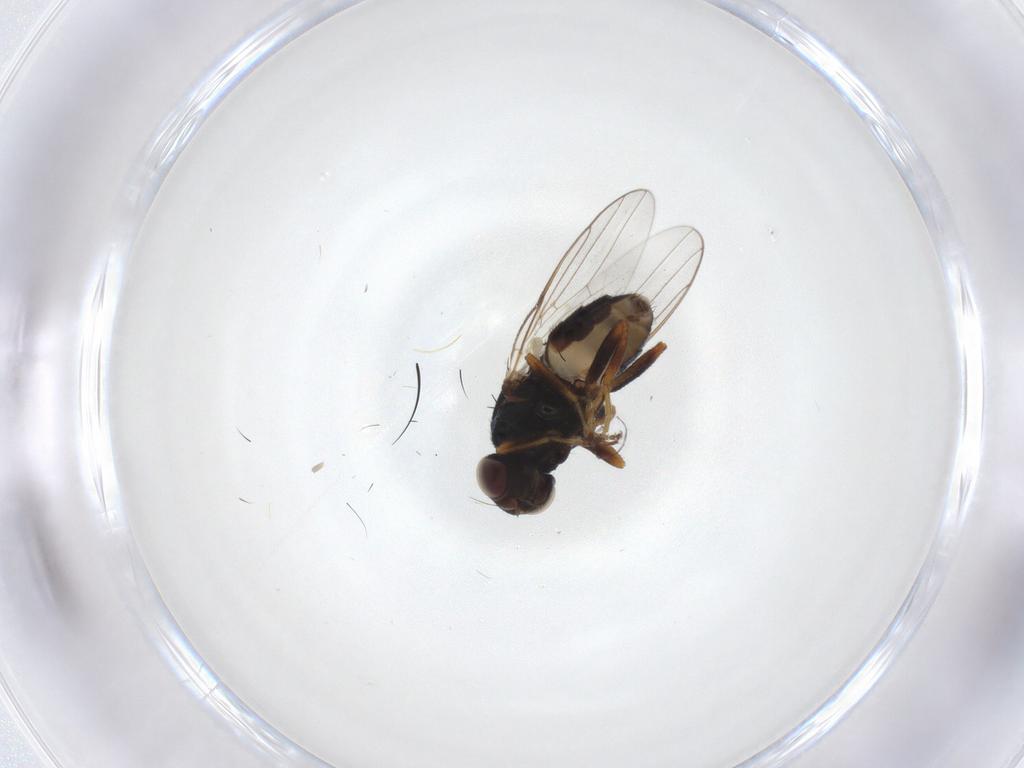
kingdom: Animalia
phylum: Arthropoda
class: Insecta
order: Diptera
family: Chloropidae
